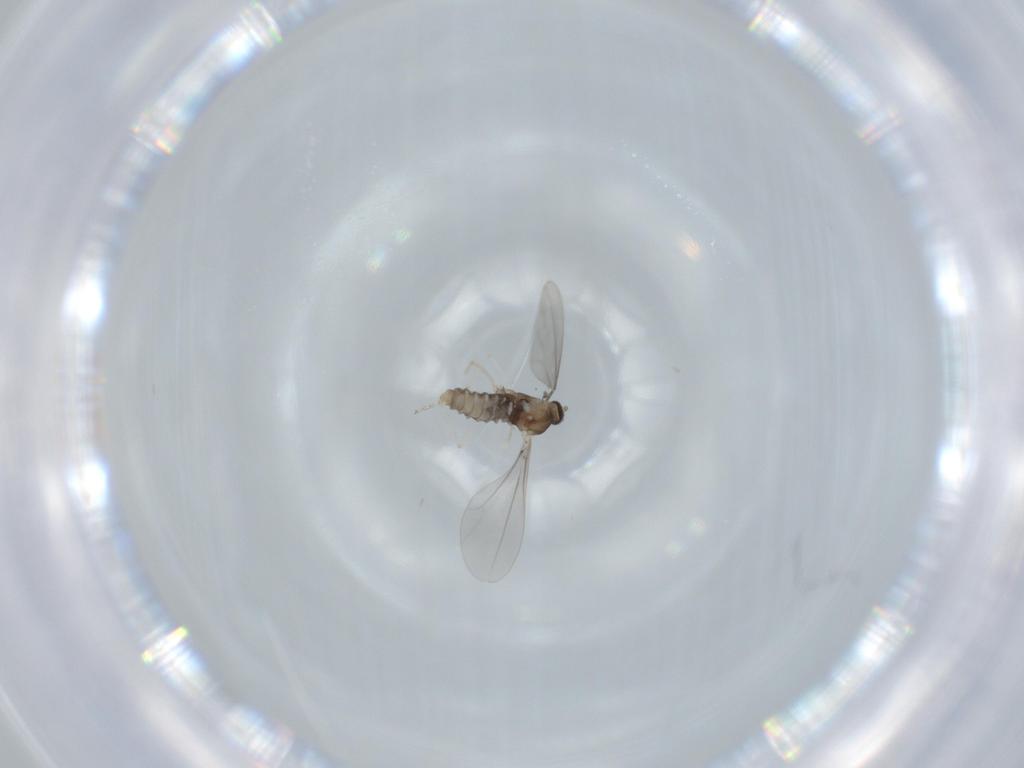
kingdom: Animalia
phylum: Arthropoda
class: Insecta
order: Diptera
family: Cecidomyiidae
